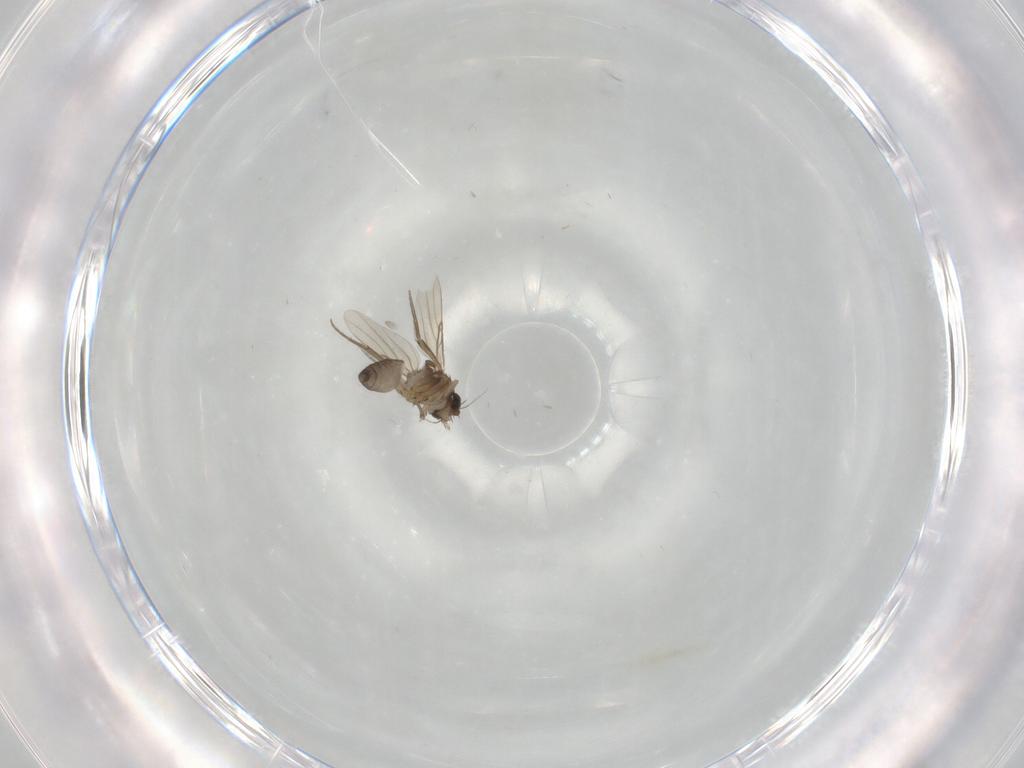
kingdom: Animalia
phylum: Arthropoda
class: Insecta
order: Diptera
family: Phoridae
